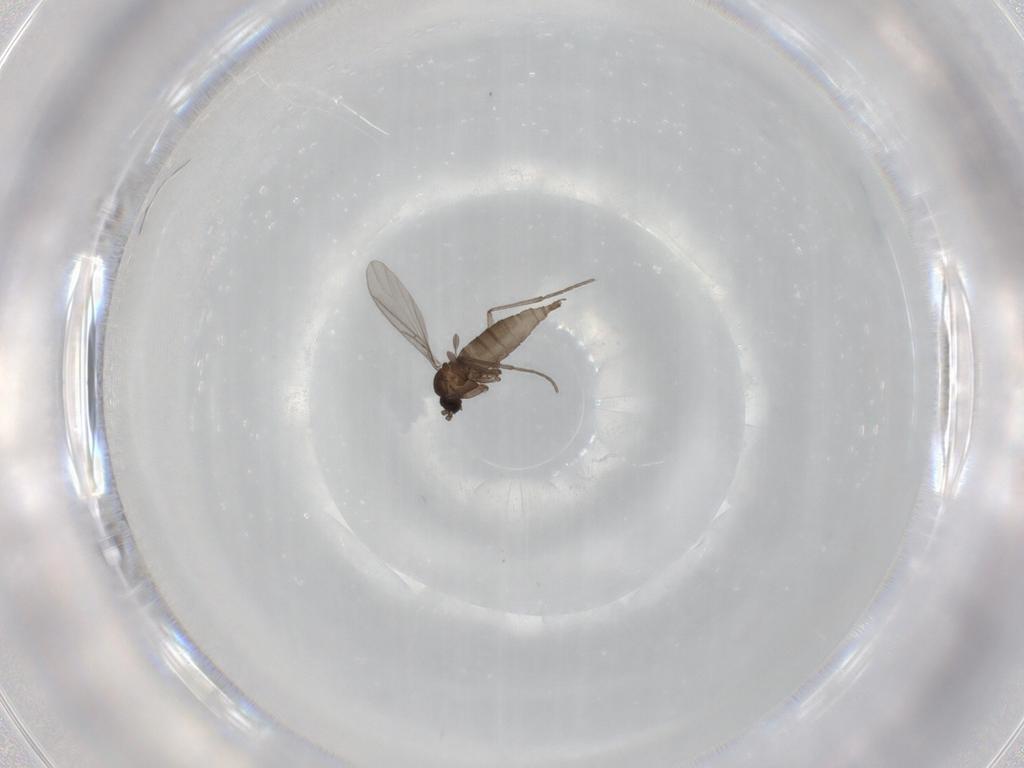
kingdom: Animalia
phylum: Arthropoda
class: Insecta
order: Diptera
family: Sciaridae
